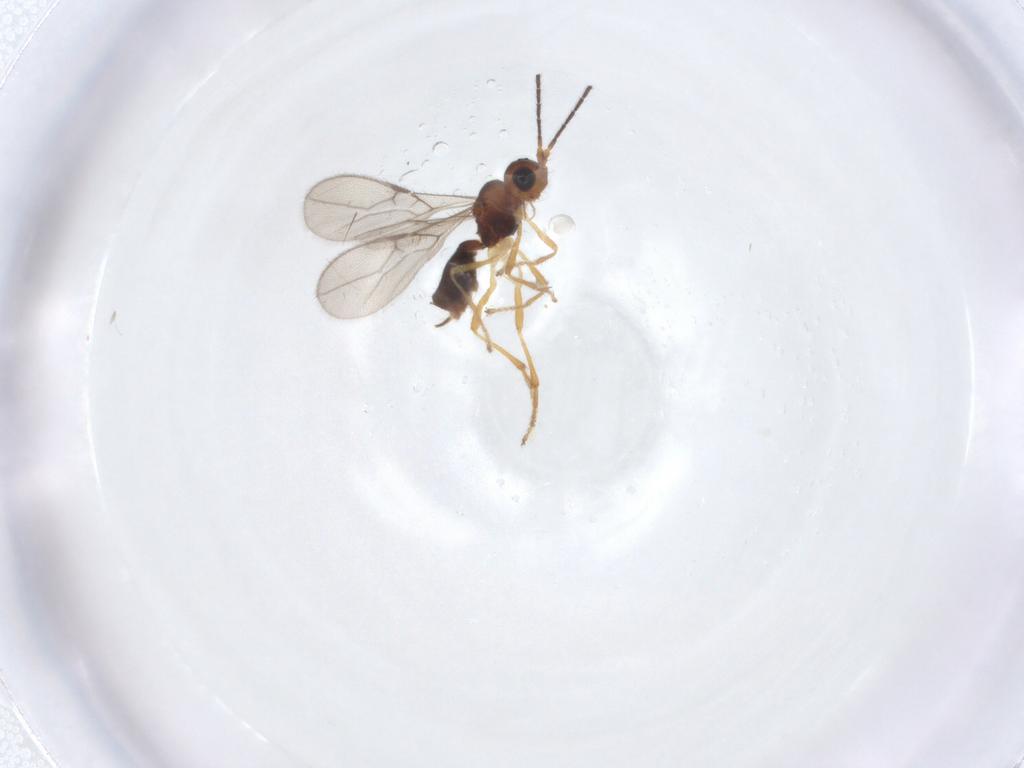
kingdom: Animalia
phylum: Arthropoda
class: Insecta
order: Hymenoptera
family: Braconidae
